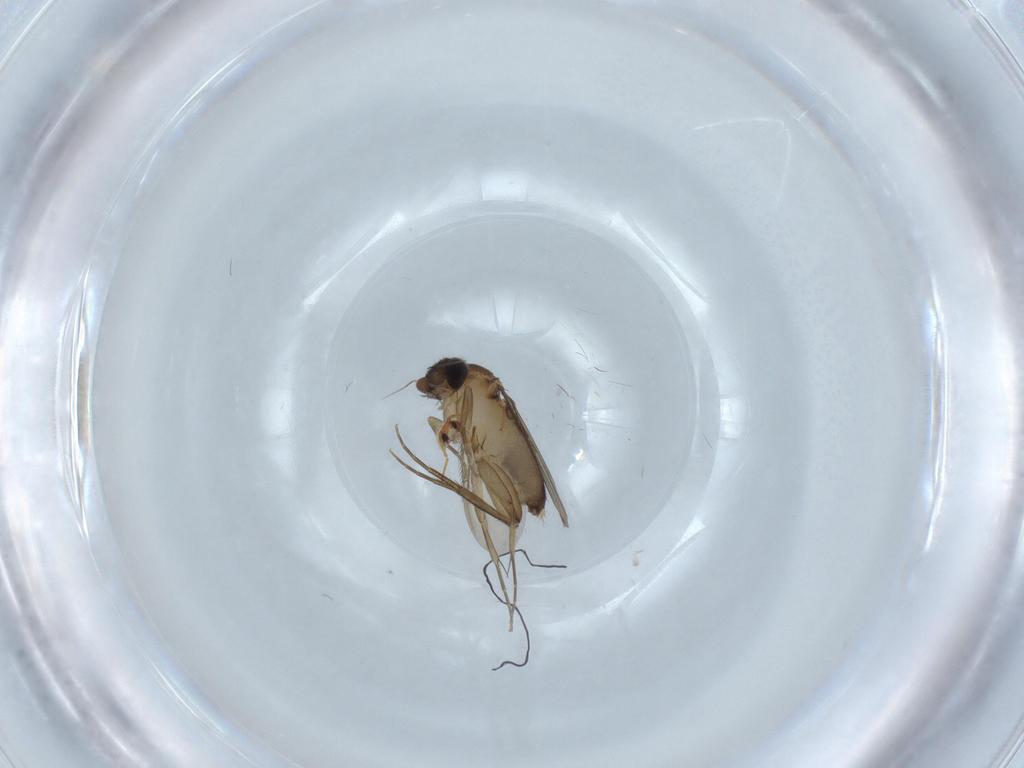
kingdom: Animalia
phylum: Arthropoda
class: Insecta
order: Diptera
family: Phoridae
